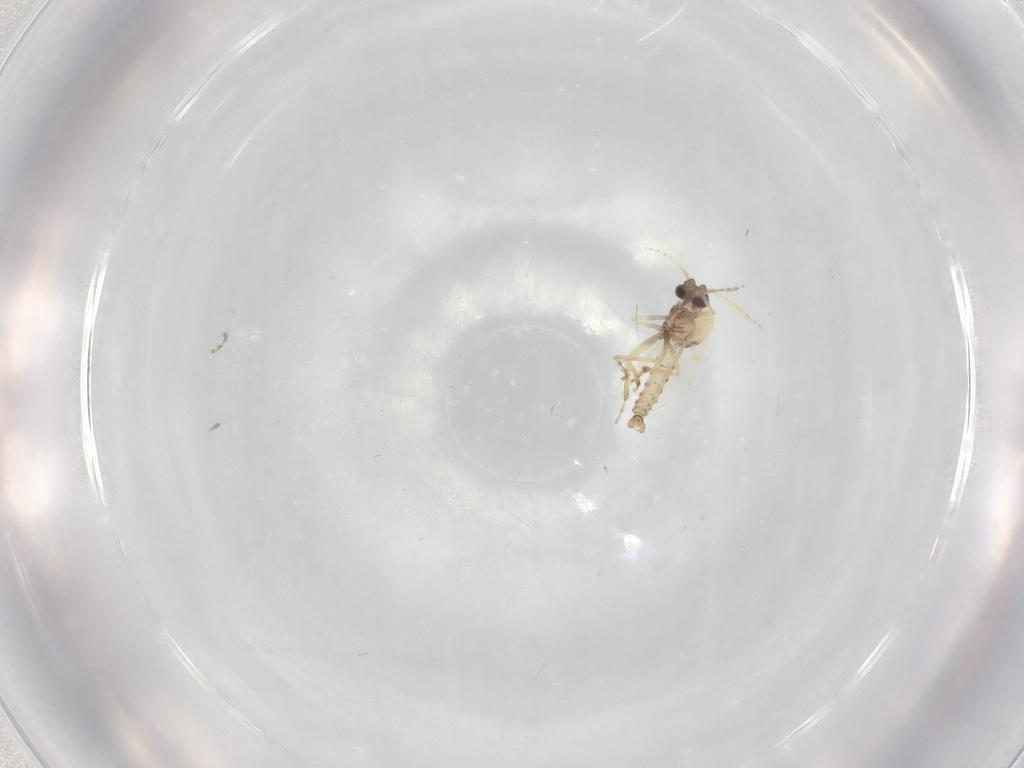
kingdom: Animalia
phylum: Arthropoda
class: Insecta
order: Diptera
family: Ceratopogonidae
